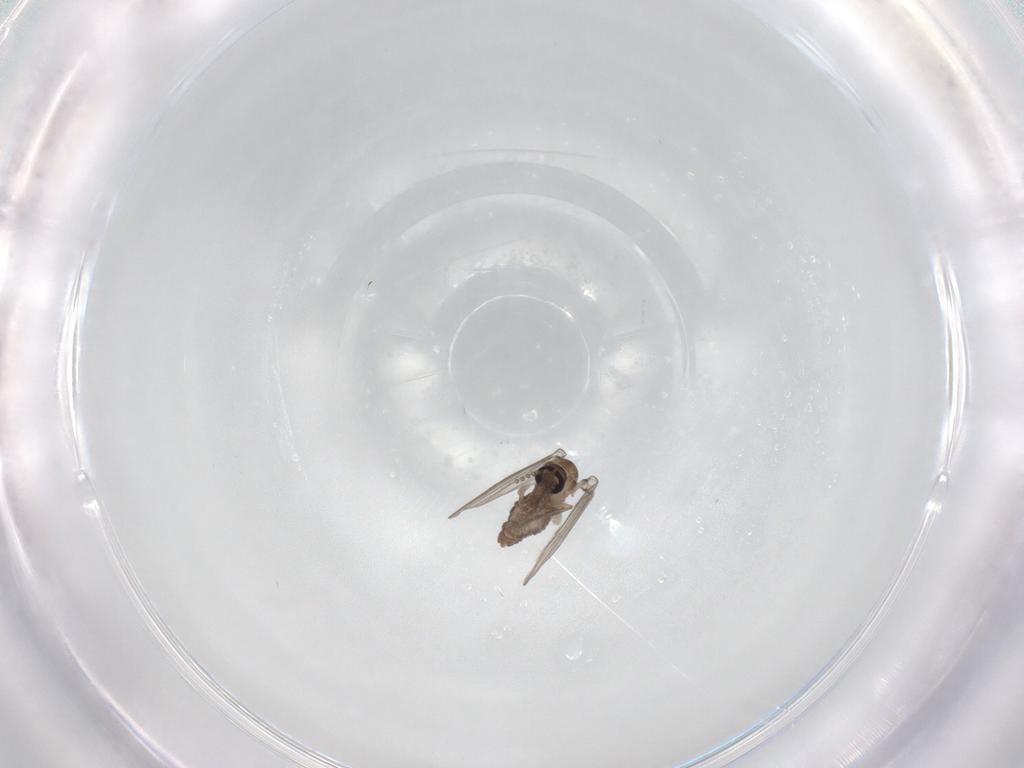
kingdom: Animalia
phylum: Arthropoda
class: Insecta
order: Diptera
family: Psychodidae
